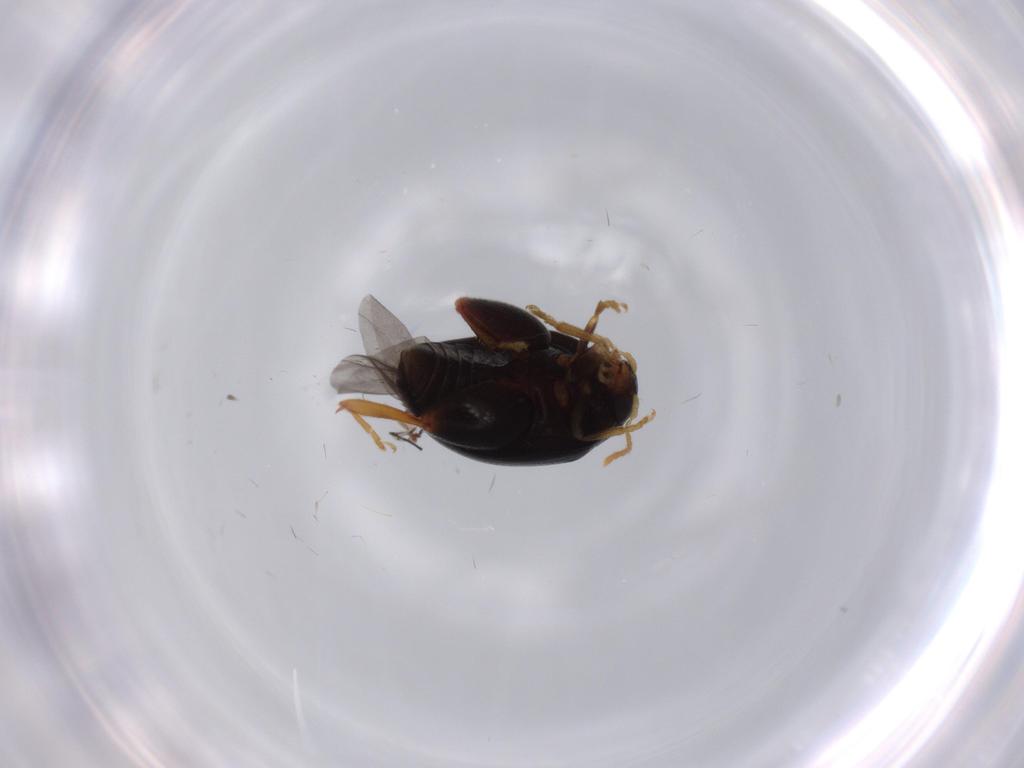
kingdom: Animalia
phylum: Arthropoda
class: Insecta
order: Coleoptera
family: Chrysomelidae
